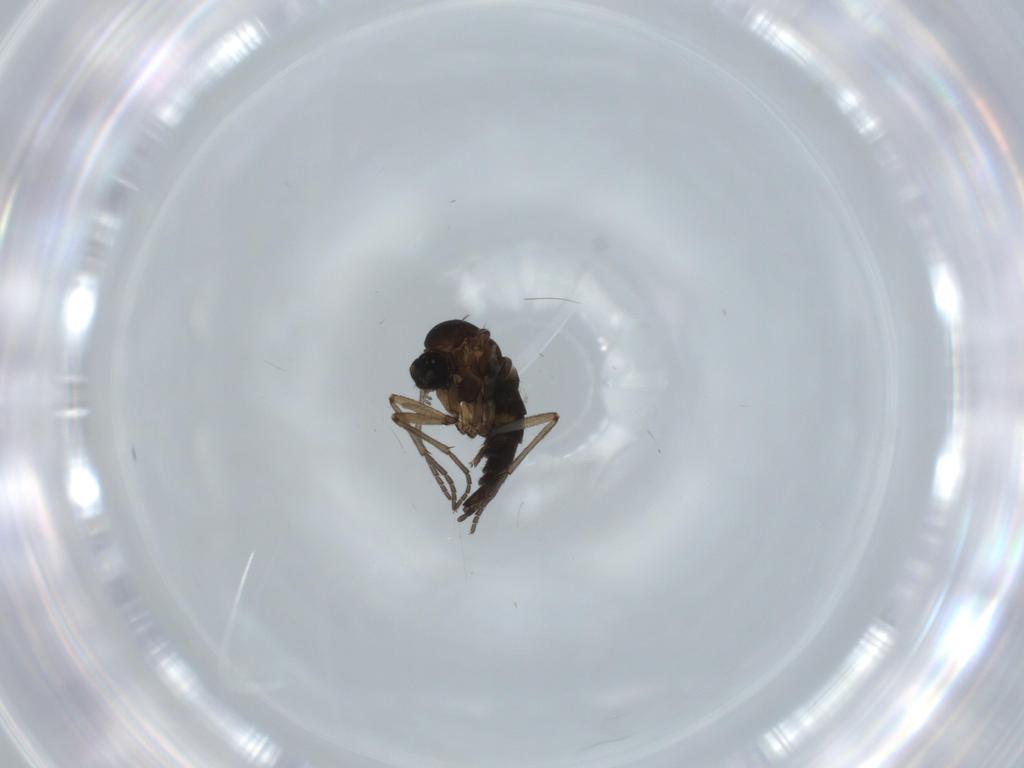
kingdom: Animalia
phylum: Arthropoda
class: Insecta
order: Diptera
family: Sciaridae
